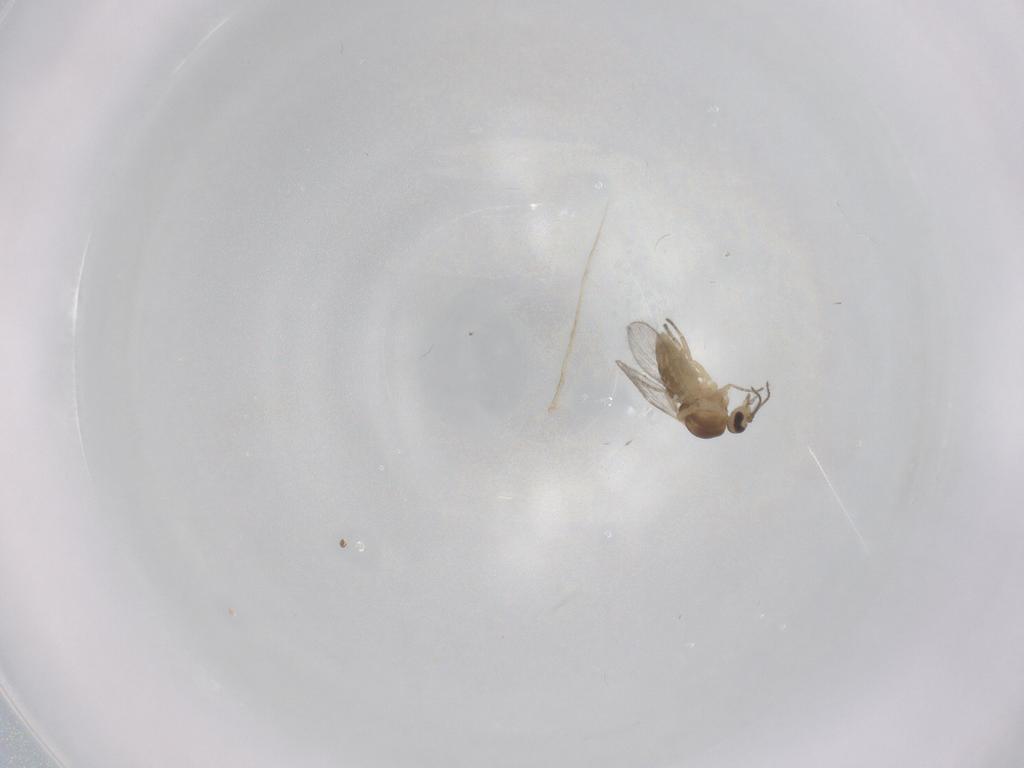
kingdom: Animalia
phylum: Arthropoda
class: Insecta
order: Diptera
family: Ceratopogonidae
